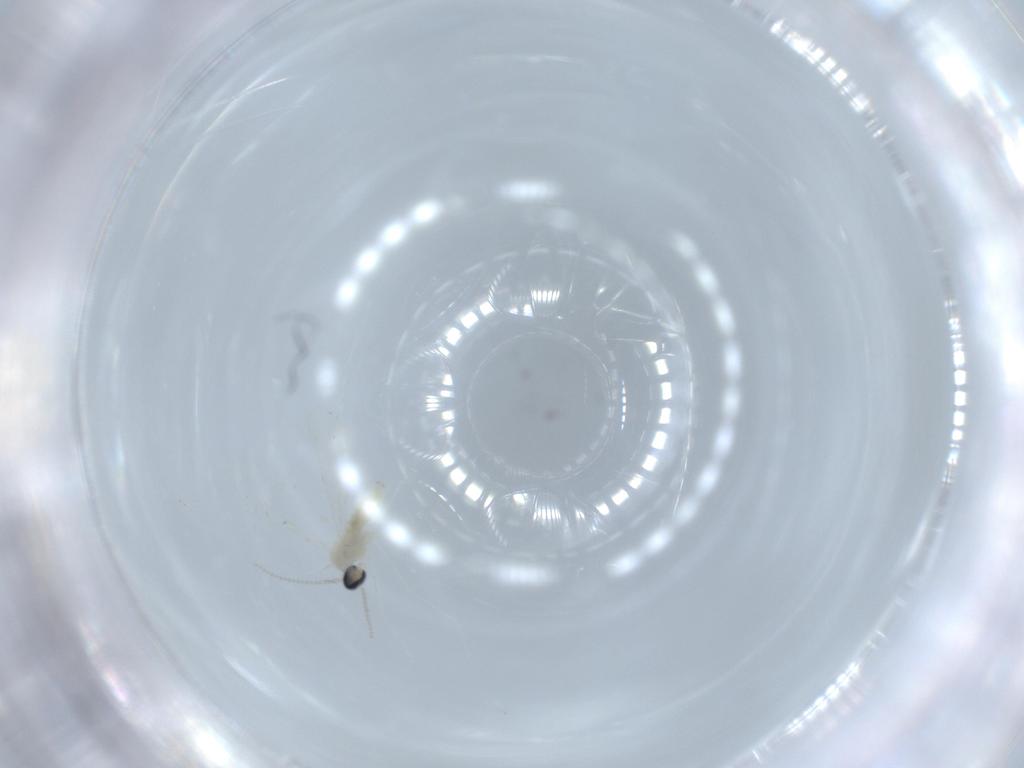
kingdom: Animalia
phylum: Arthropoda
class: Insecta
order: Diptera
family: Cecidomyiidae
